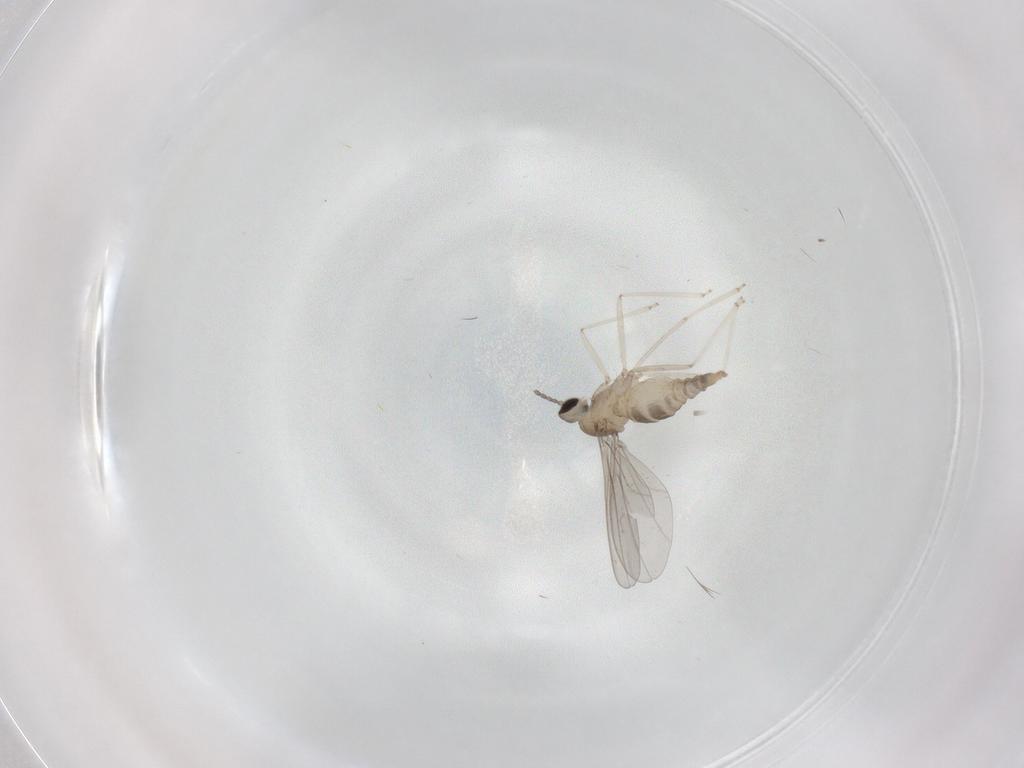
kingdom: Animalia
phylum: Arthropoda
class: Insecta
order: Diptera
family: Cecidomyiidae
